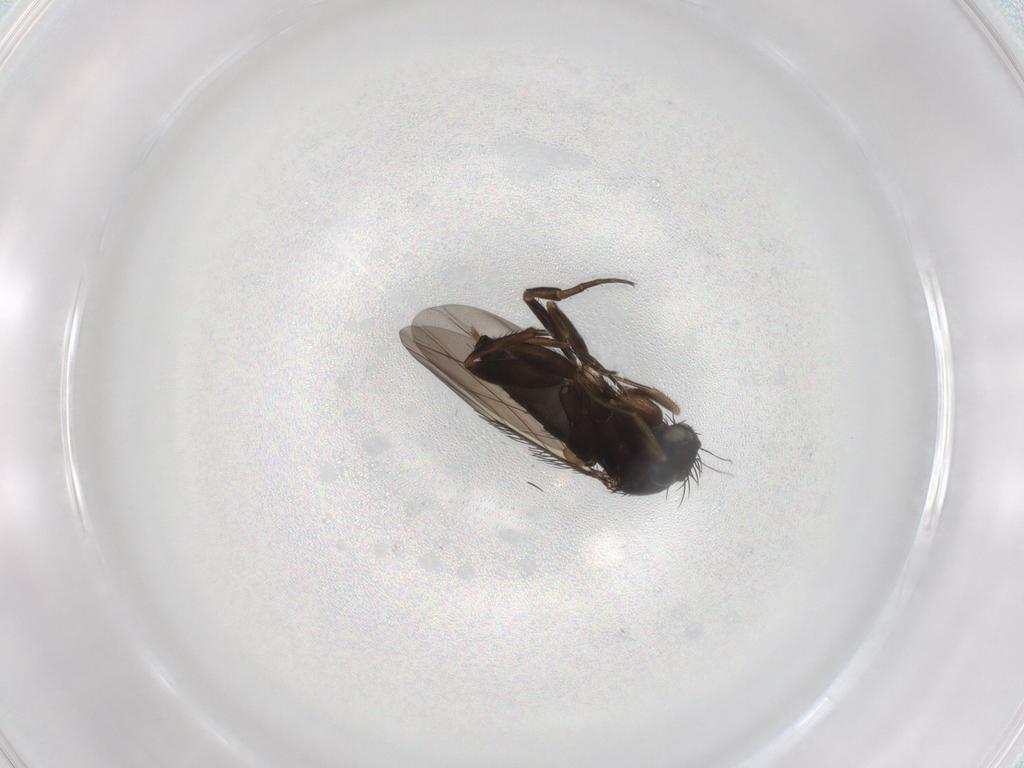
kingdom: Animalia
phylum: Arthropoda
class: Insecta
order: Diptera
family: Phoridae
